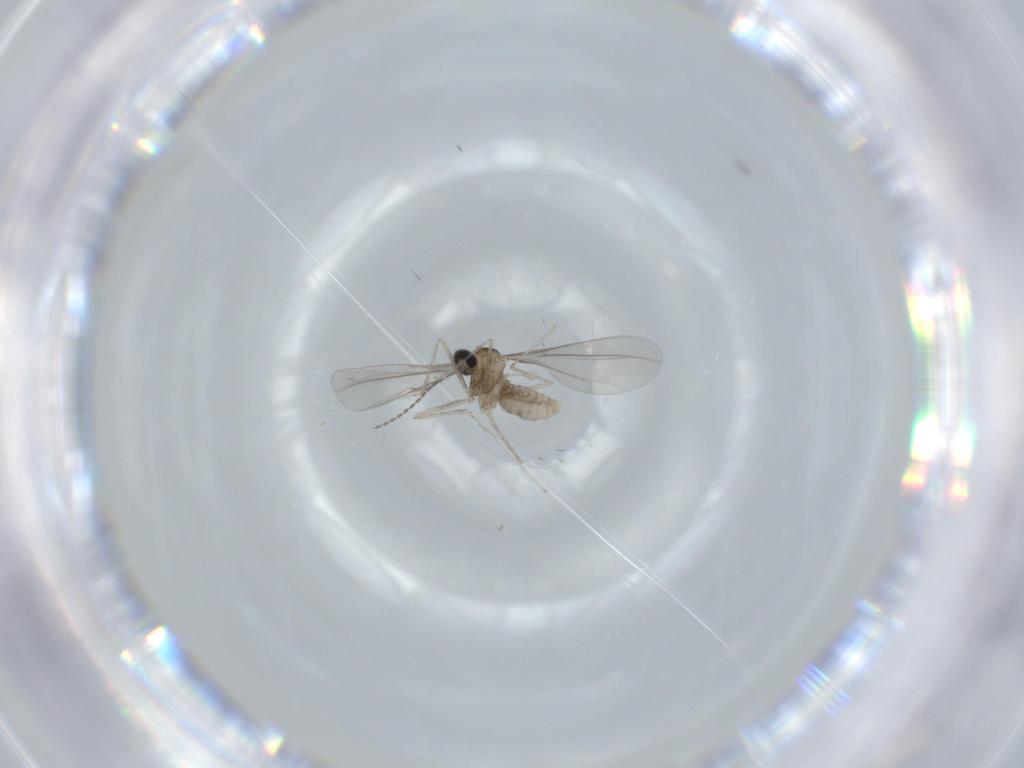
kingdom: Animalia
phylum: Arthropoda
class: Insecta
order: Diptera
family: Cecidomyiidae
